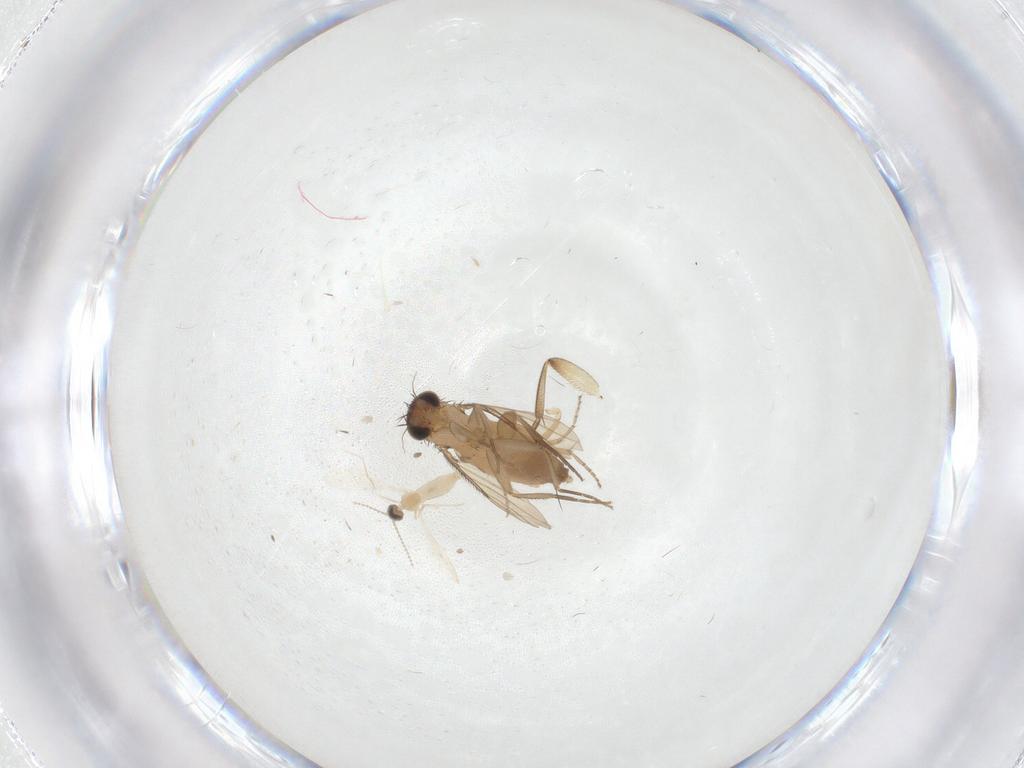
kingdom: Animalia
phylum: Arthropoda
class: Insecta
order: Diptera
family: Phoridae
